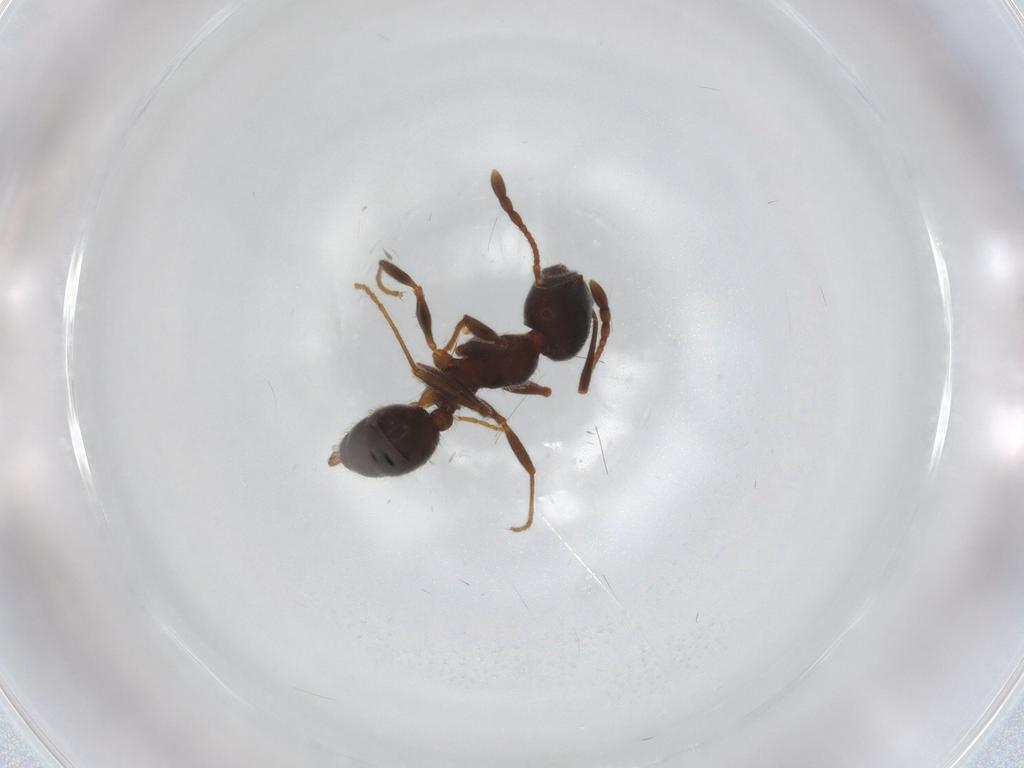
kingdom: Animalia
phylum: Arthropoda
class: Insecta
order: Hymenoptera
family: Formicidae
